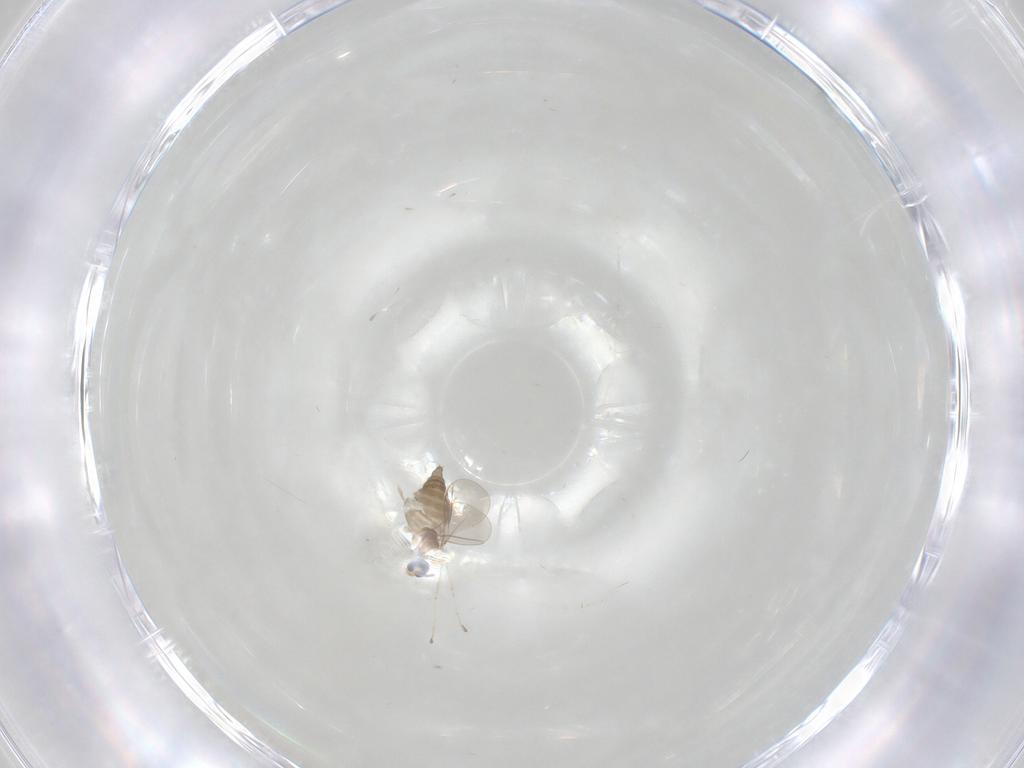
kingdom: Animalia
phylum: Arthropoda
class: Insecta
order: Diptera
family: Cecidomyiidae
